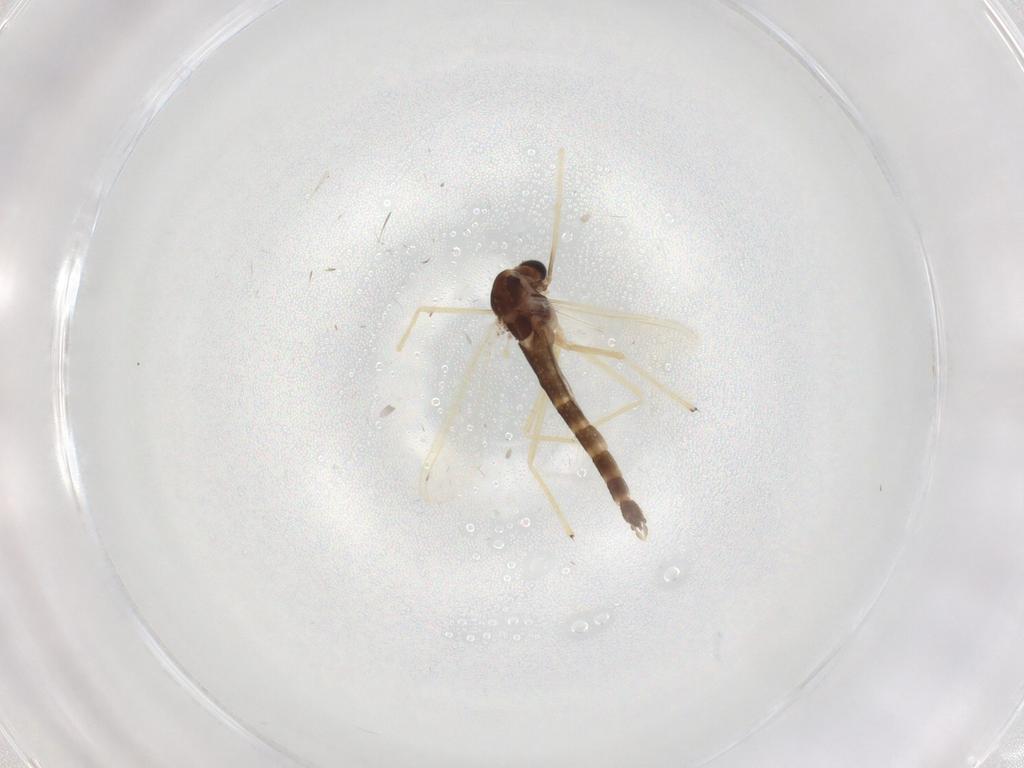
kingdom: Animalia
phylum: Arthropoda
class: Insecta
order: Diptera
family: Chironomidae
